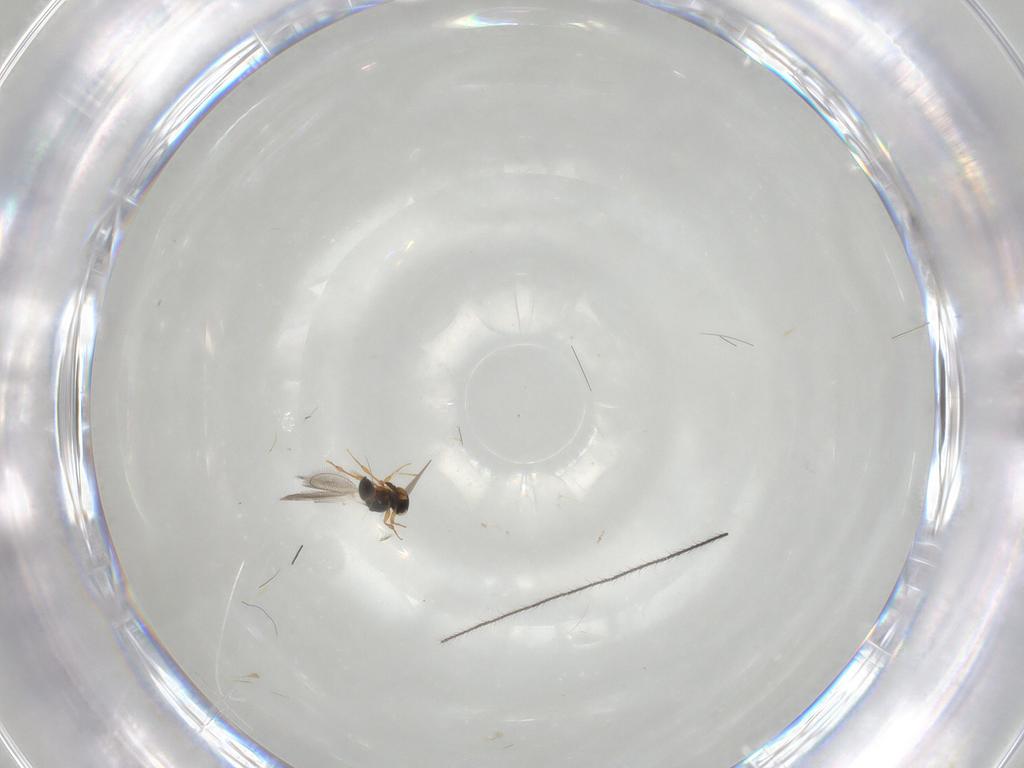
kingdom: Animalia
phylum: Arthropoda
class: Insecta
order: Hymenoptera
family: Platygastridae
